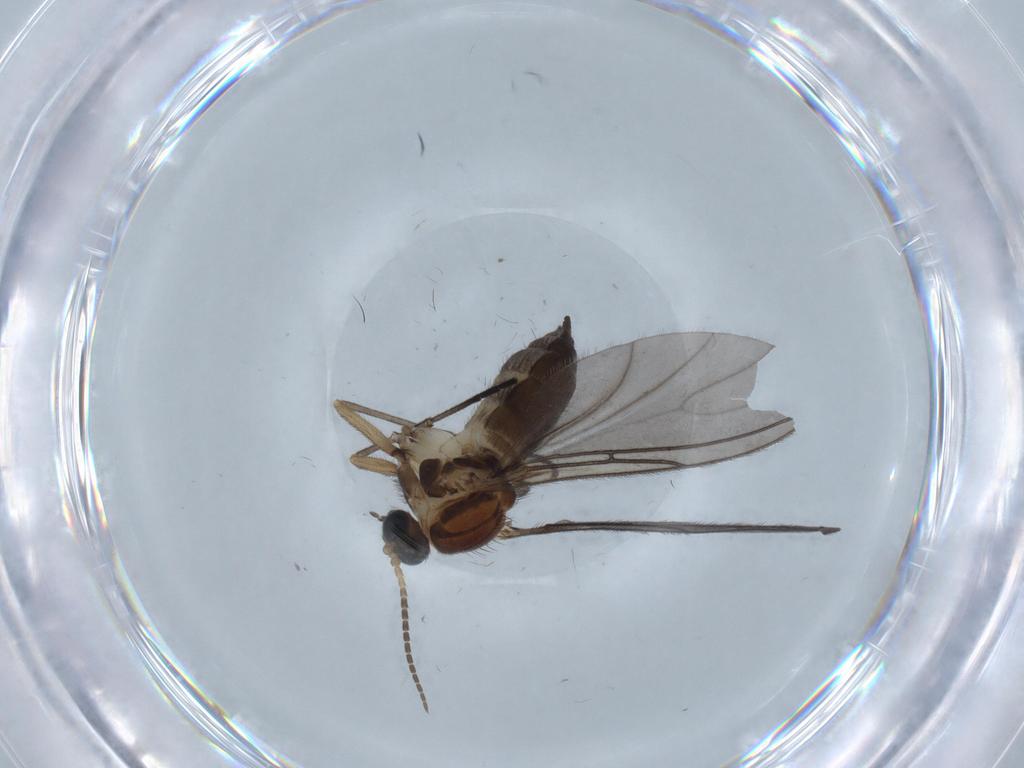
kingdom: Animalia
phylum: Arthropoda
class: Insecta
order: Diptera
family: Sciaridae
